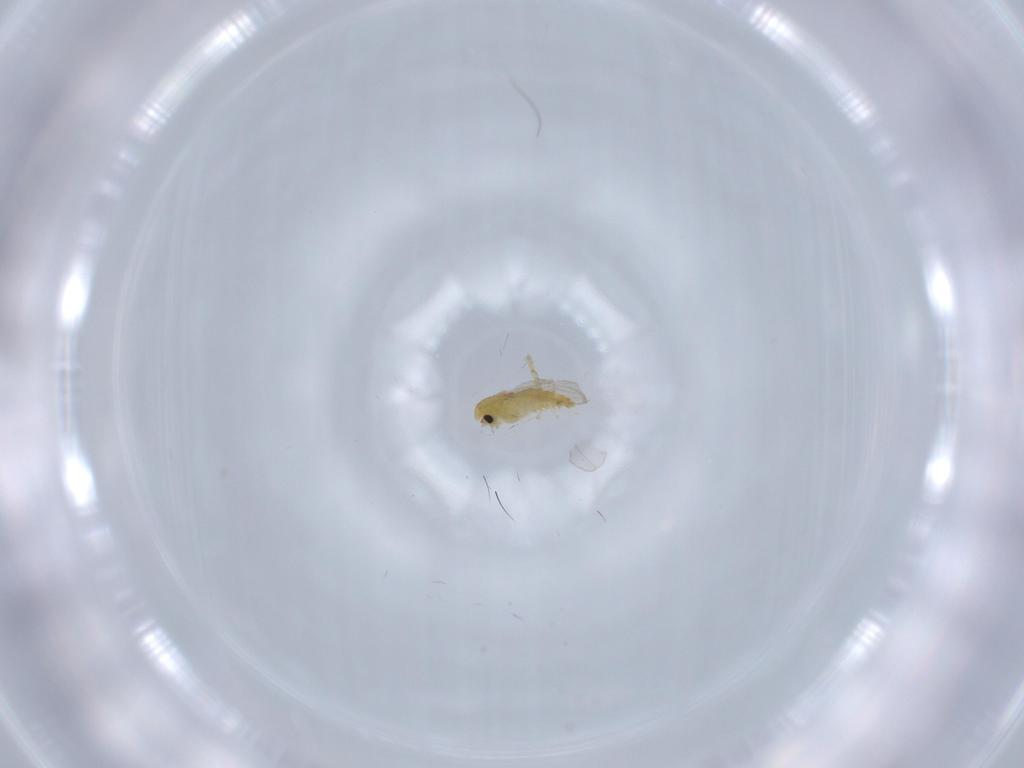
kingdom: Animalia
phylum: Arthropoda
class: Insecta
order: Diptera
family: Chironomidae
